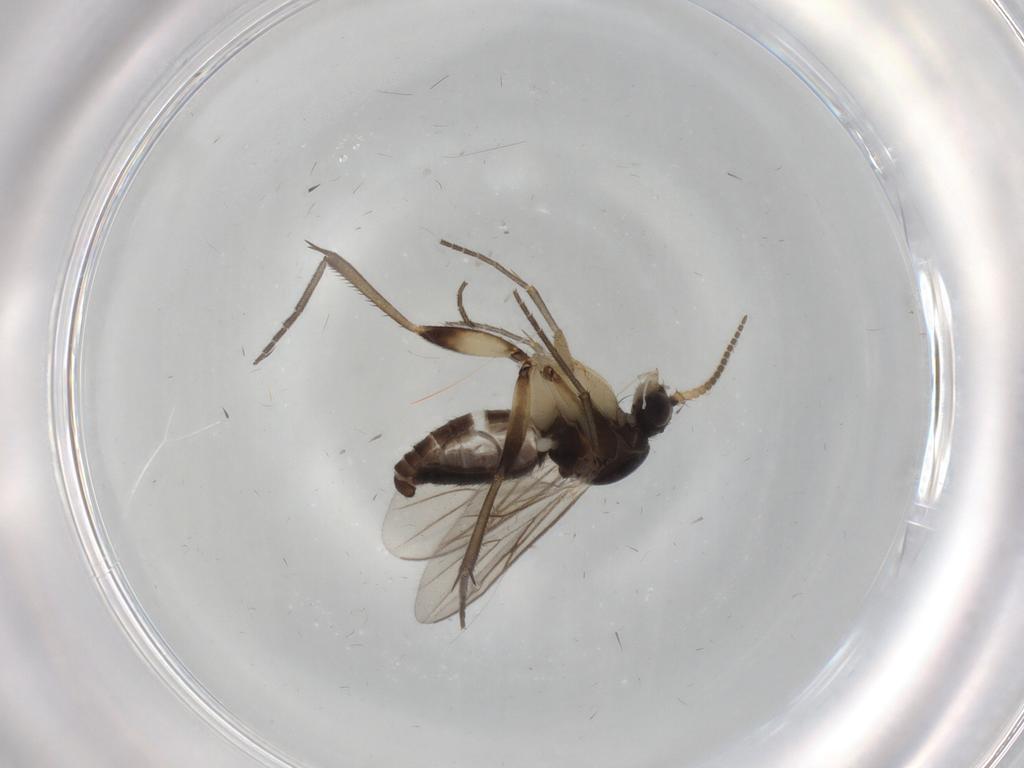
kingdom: Animalia
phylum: Arthropoda
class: Insecta
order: Diptera
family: Mycetophilidae
